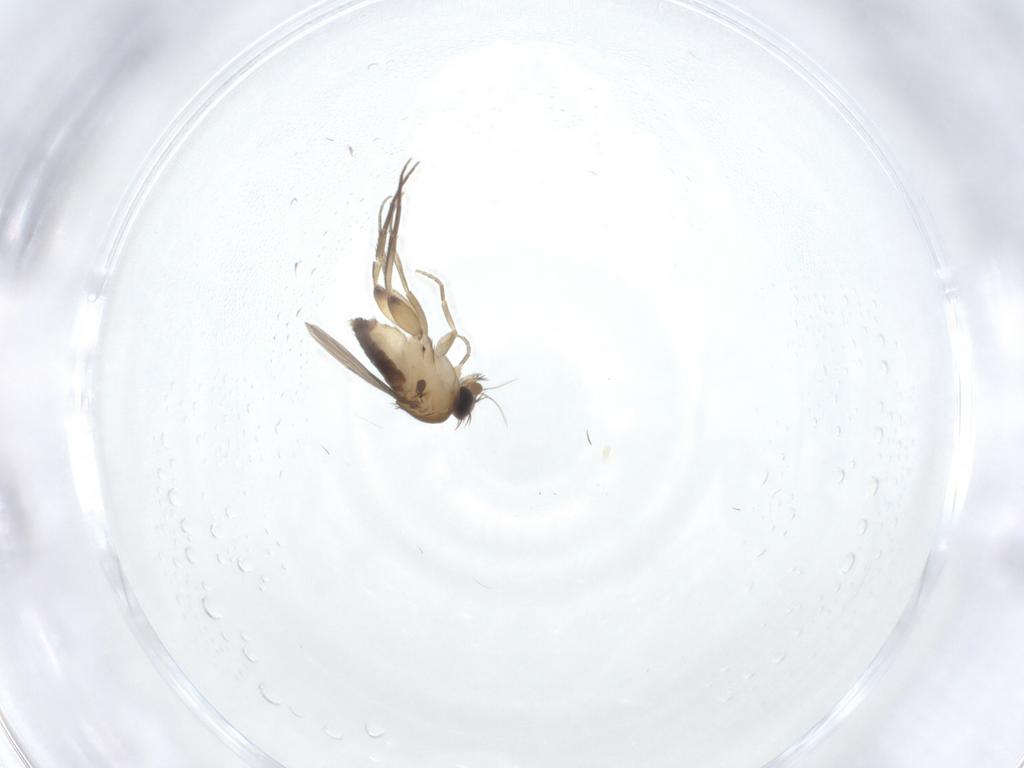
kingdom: Animalia
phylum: Arthropoda
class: Insecta
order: Diptera
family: Phoridae
